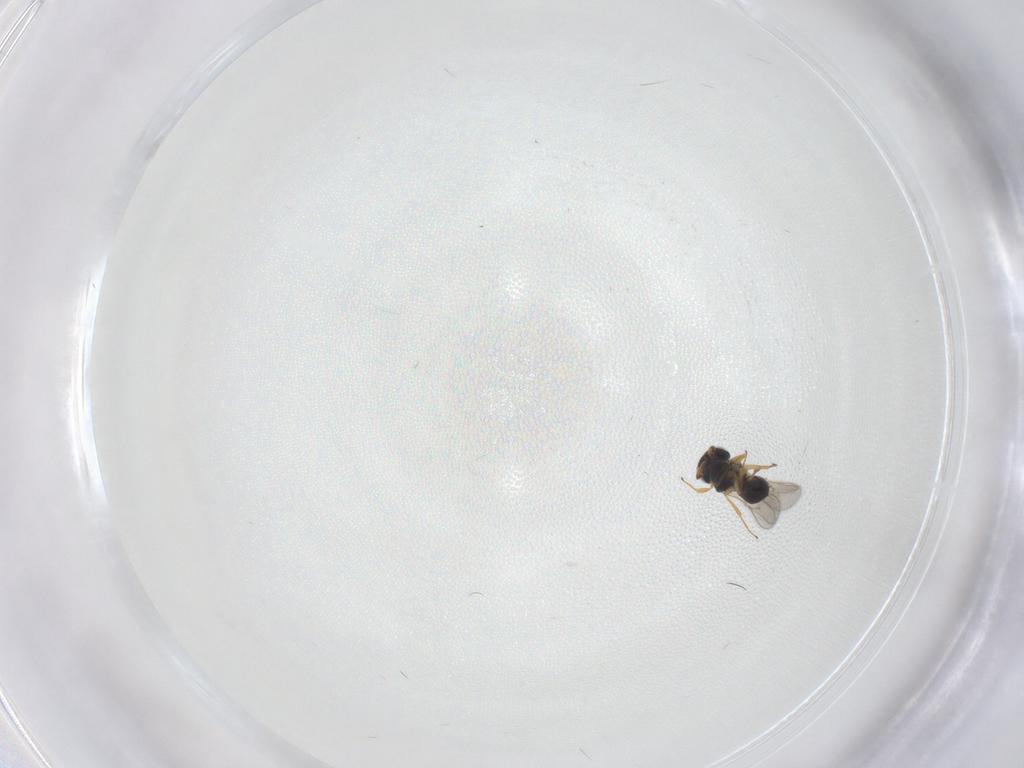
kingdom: Animalia
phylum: Arthropoda
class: Insecta
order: Hymenoptera
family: Scelionidae
